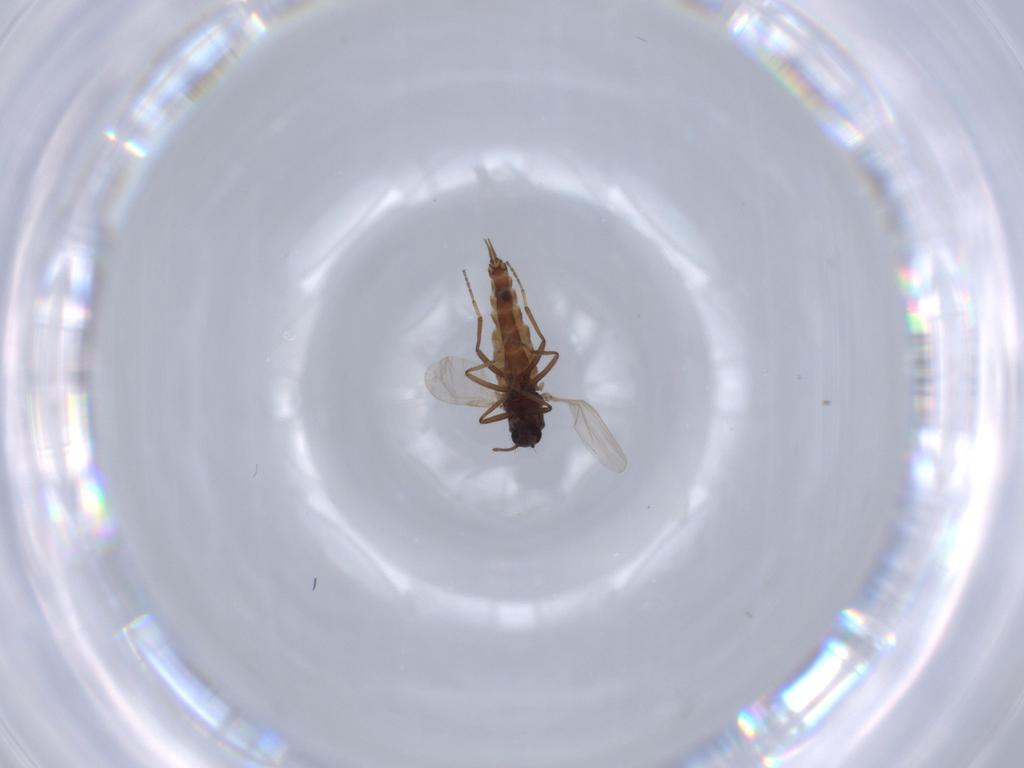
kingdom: Animalia
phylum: Arthropoda
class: Insecta
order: Diptera
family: Ceratopogonidae
